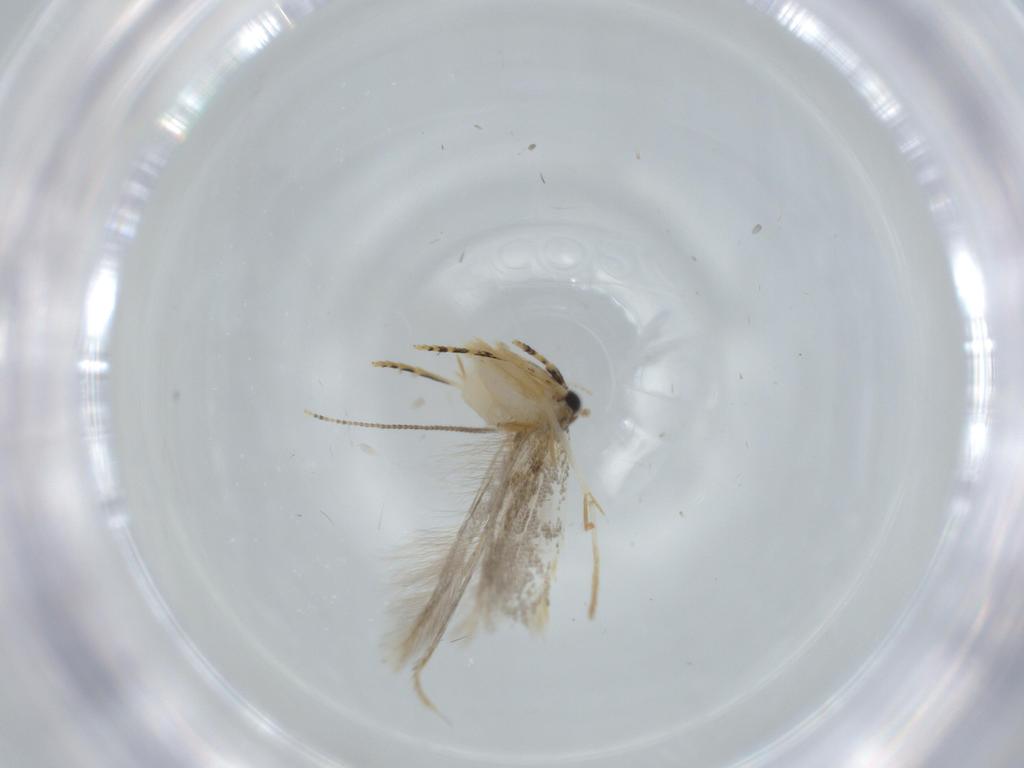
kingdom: Animalia
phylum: Arthropoda
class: Insecta
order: Lepidoptera
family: Tineidae
